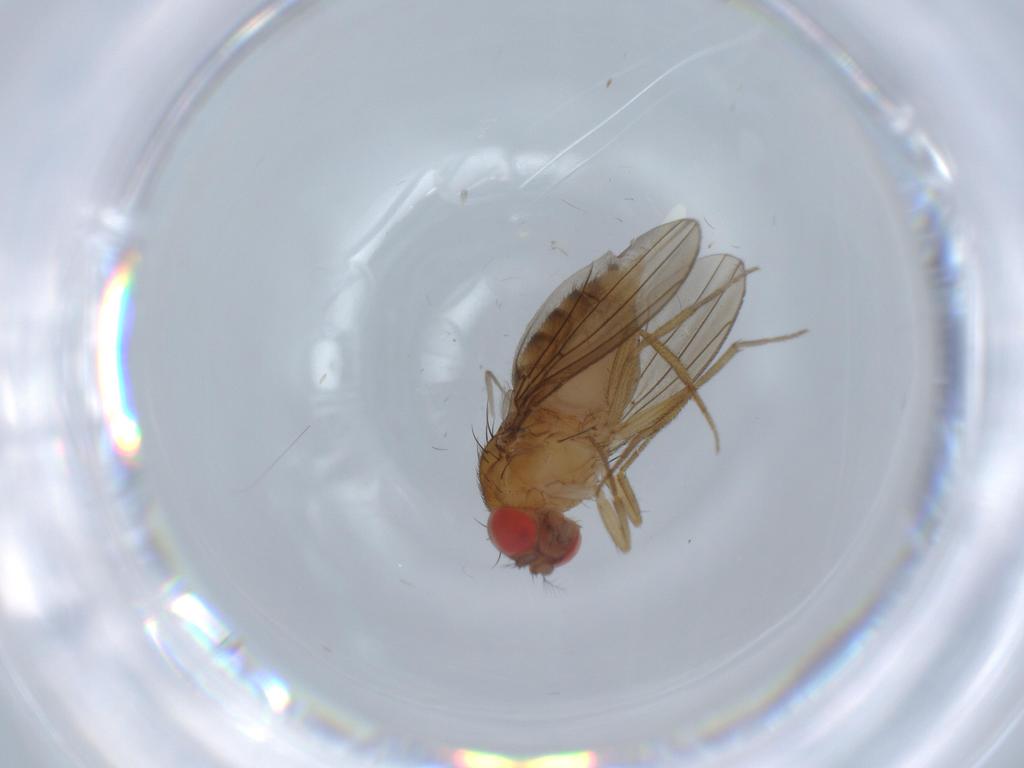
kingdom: Animalia
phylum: Arthropoda
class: Insecta
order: Diptera
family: Drosophilidae
